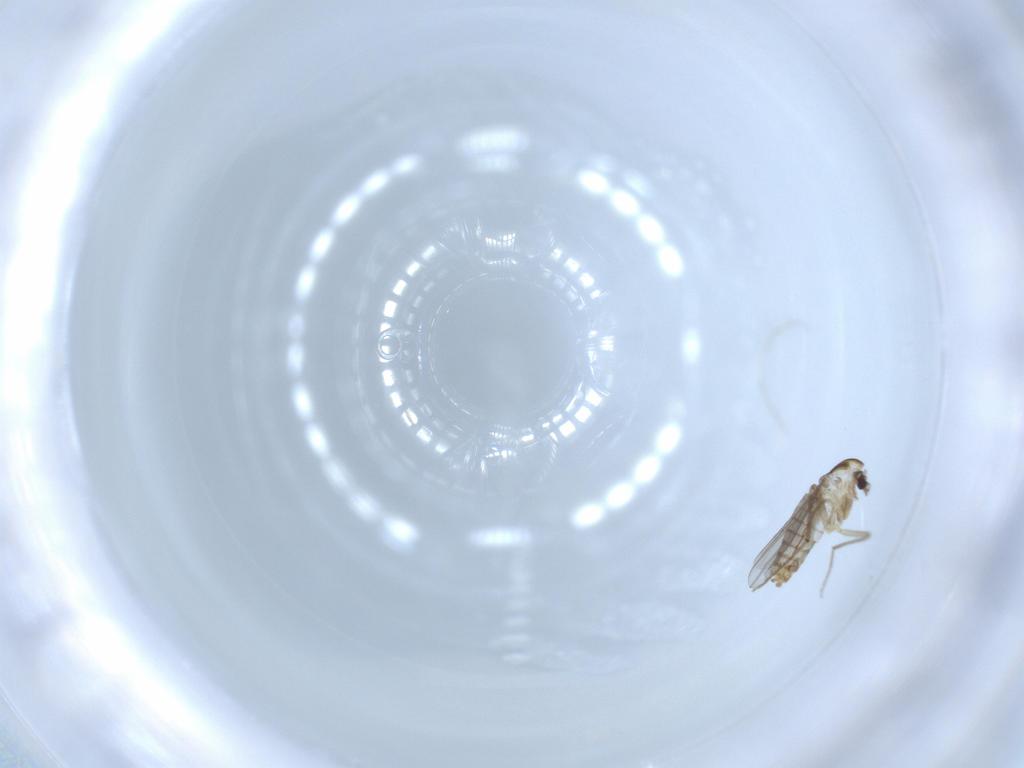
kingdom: Animalia
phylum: Arthropoda
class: Insecta
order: Diptera
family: Chironomidae
